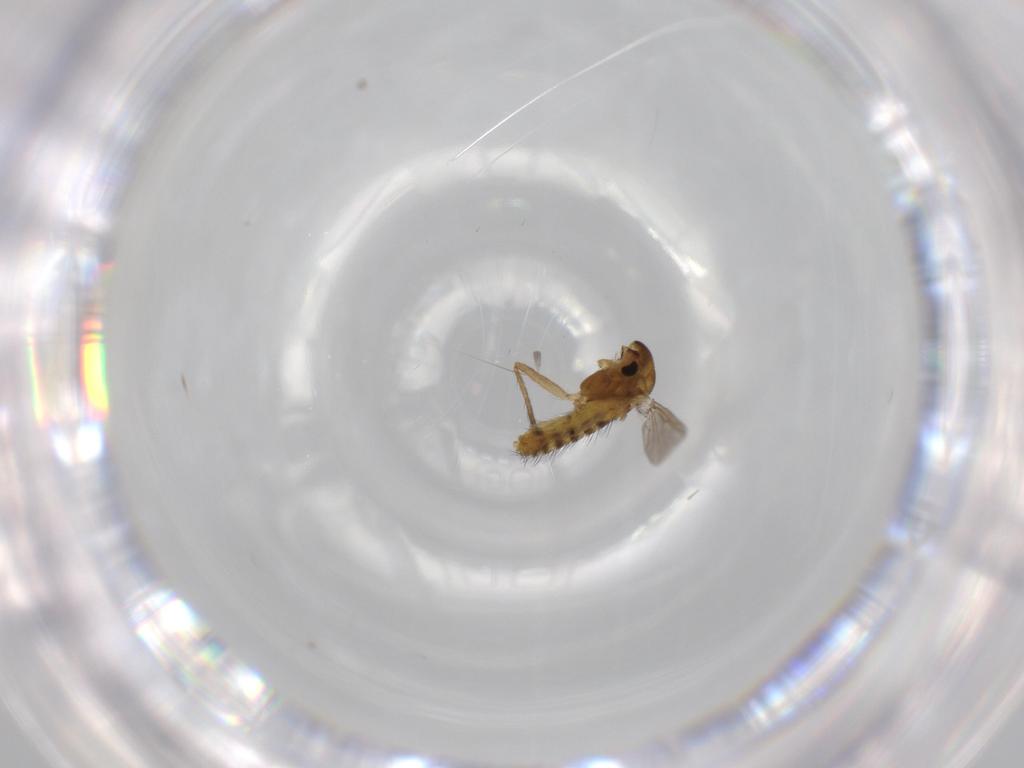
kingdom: Animalia
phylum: Arthropoda
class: Insecta
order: Diptera
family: Chironomidae
